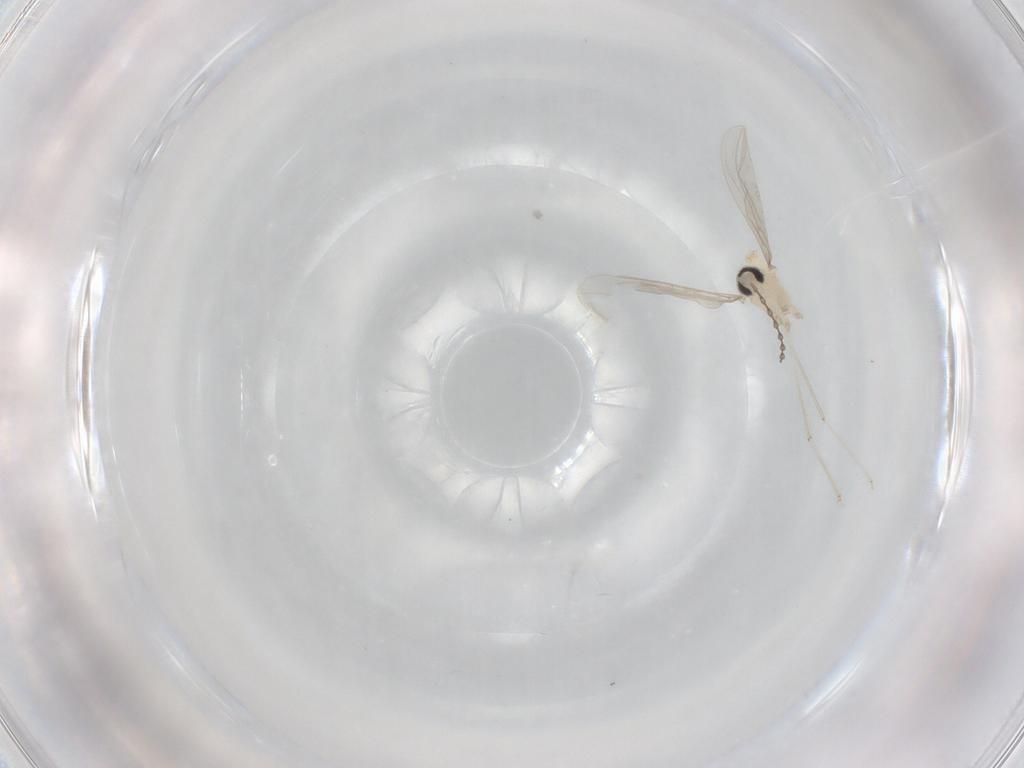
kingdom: Animalia
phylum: Arthropoda
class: Insecta
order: Diptera
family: Cecidomyiidae
